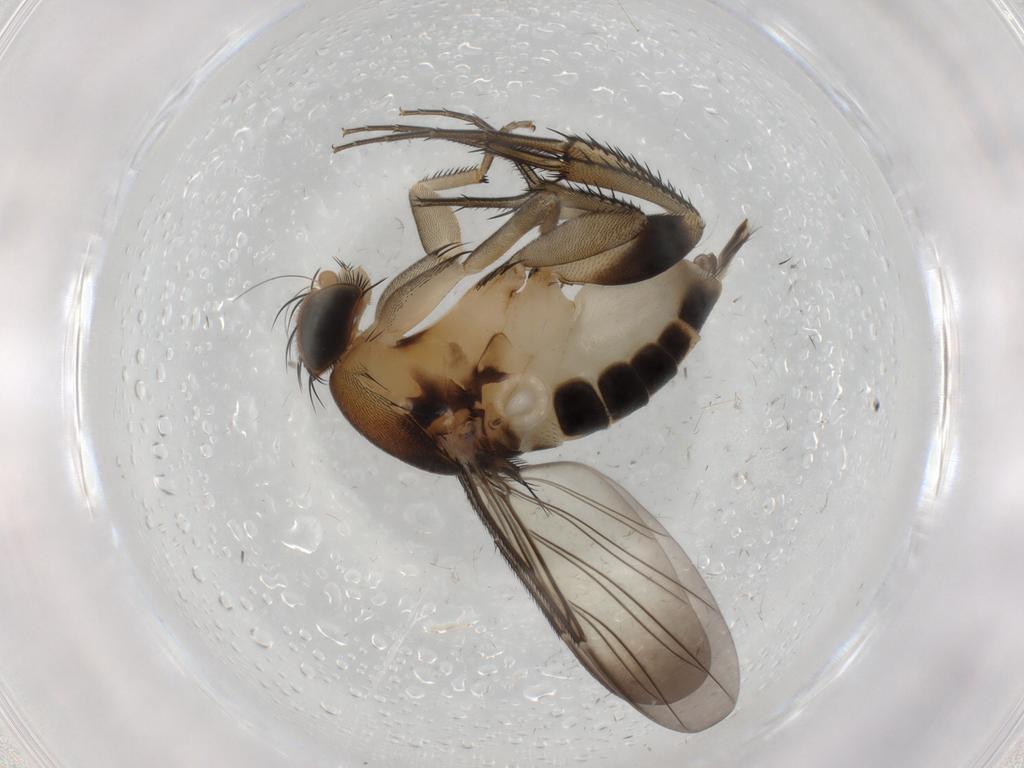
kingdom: Animalia
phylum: Arthropoda
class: Insecta
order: Diptera
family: Phoridae
